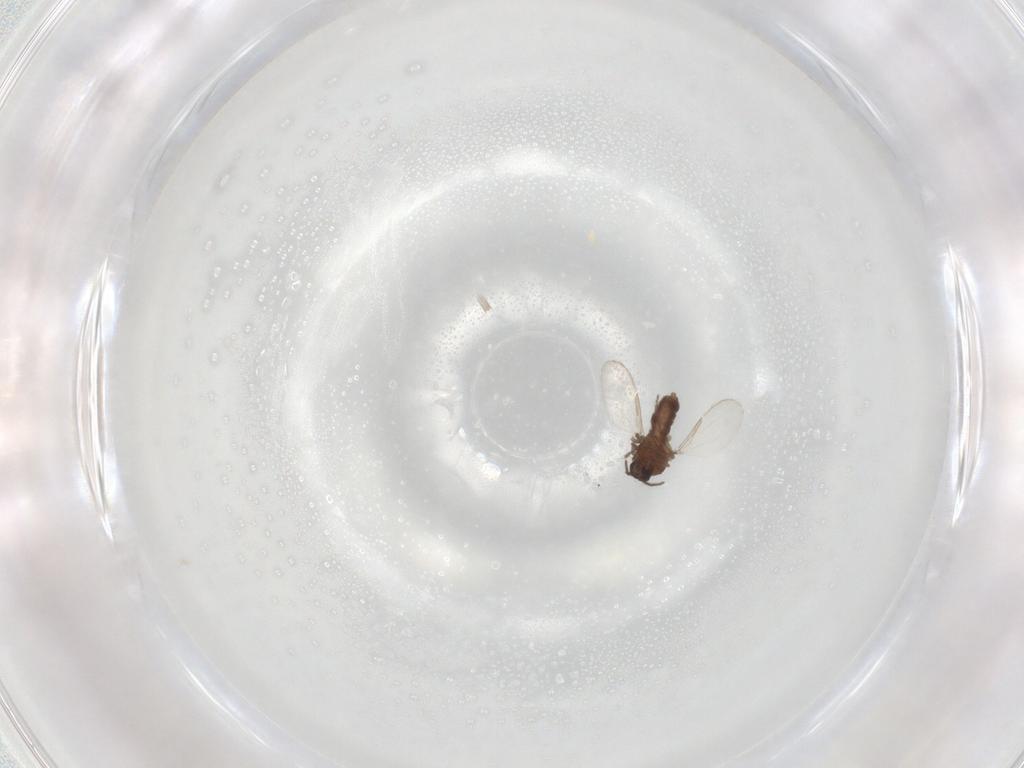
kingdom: Animalia
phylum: Arthropoda
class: Insecta
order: Diptera
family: Ceratopogonidae
